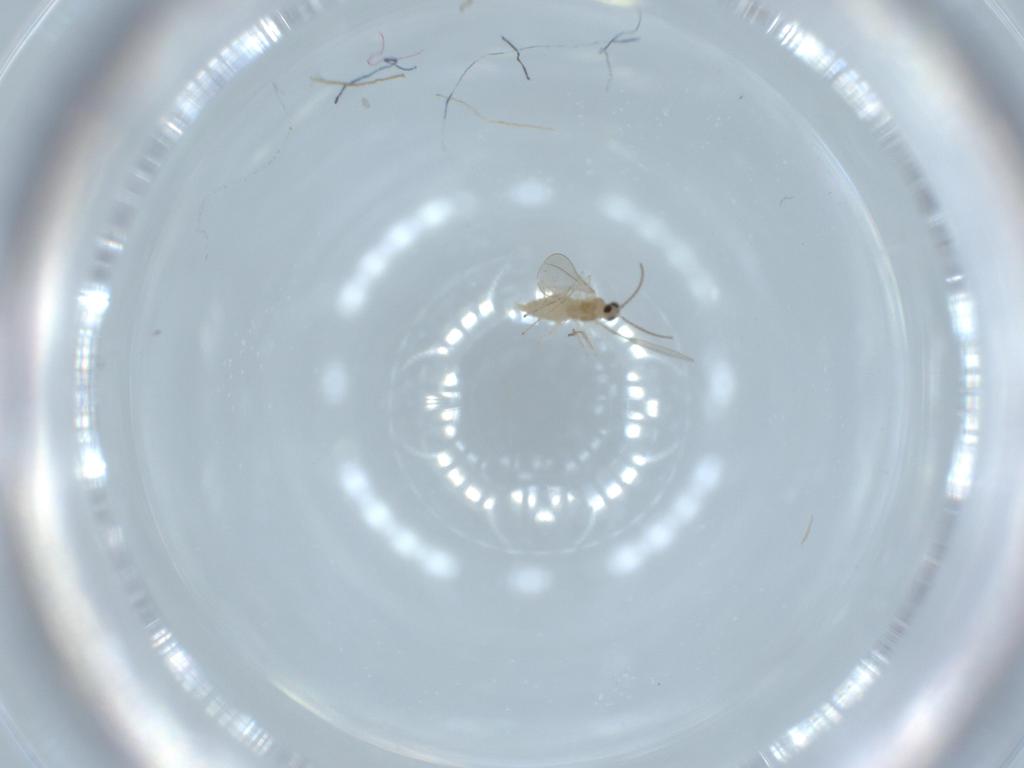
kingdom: Animalia
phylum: Arthropoda
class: Insecta
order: Diptera
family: Cecidomyiidae
